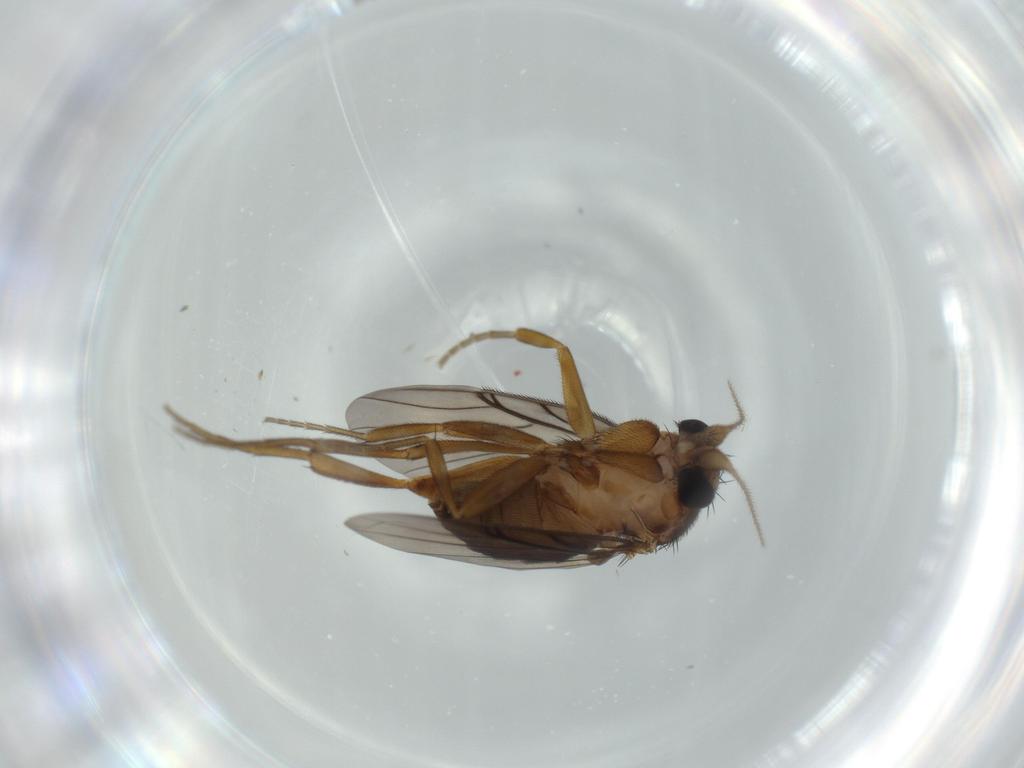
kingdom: Animalia
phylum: Arthropoda
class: Insecta
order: Diptera
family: Phoridae
